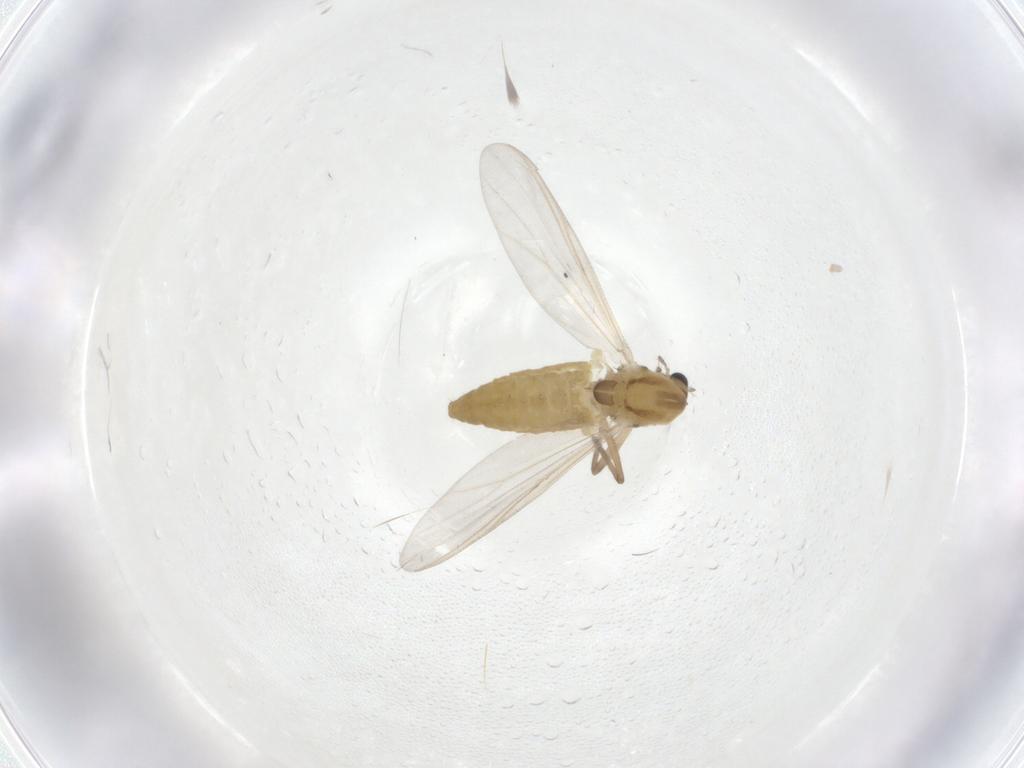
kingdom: Animalia
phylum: Arthropoda
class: Insecta
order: Diptera
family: Chironomidae
